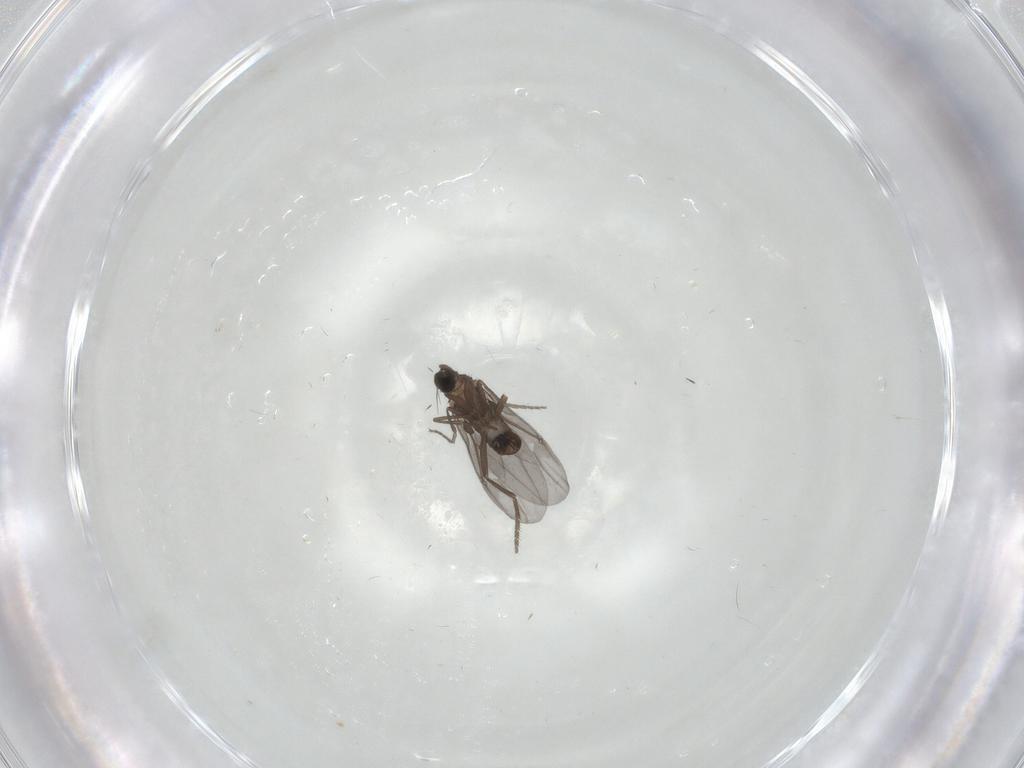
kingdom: Animalia
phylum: Arthropoda
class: Insecta
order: Diptera
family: Phoridae
